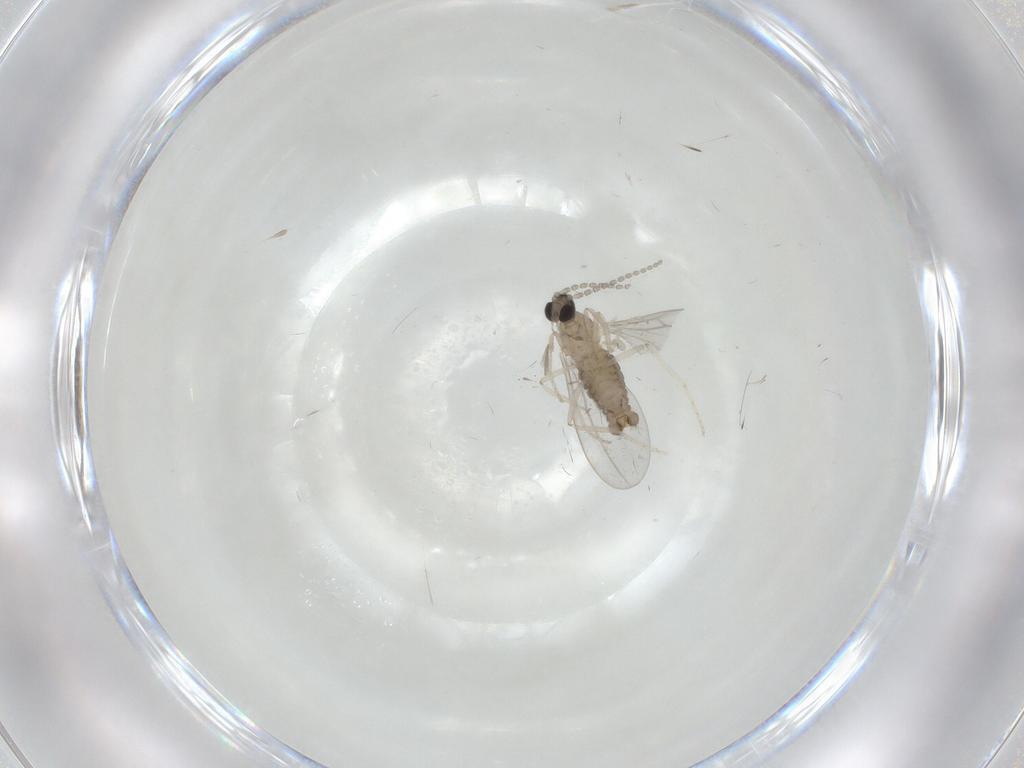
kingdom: Animalia
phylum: Arthropoda
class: Insecta
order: Diptera
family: Cecidomyiidae
